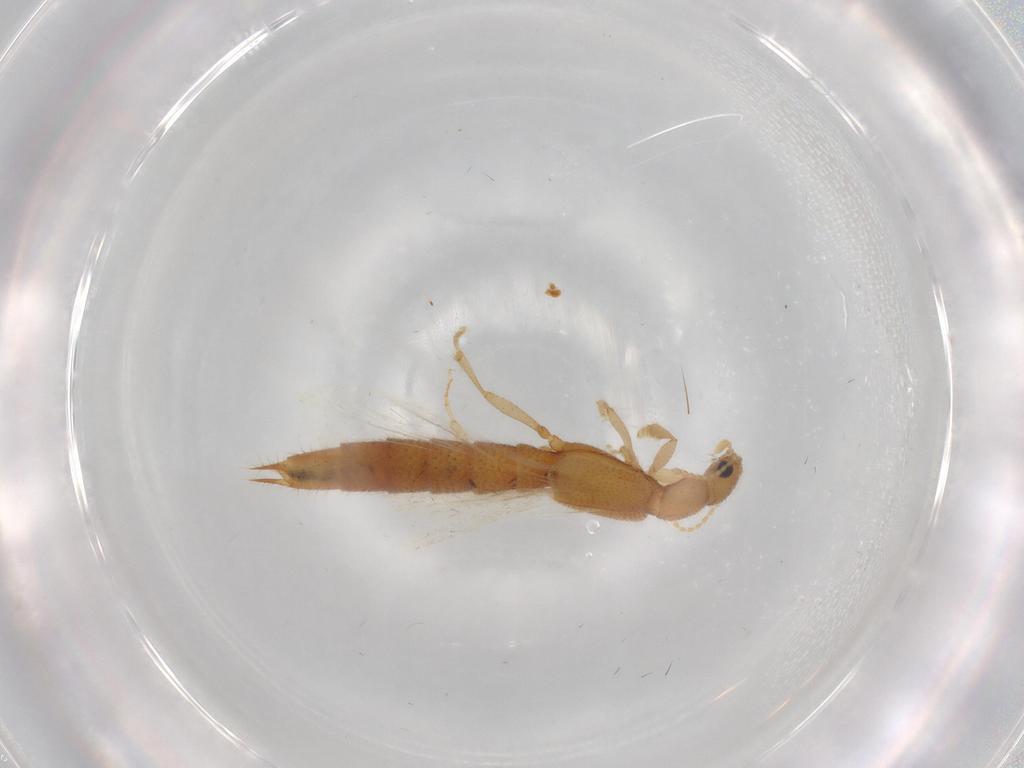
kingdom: Animalia
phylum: Arthropoda
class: Insecta
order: Coleoptera
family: Staphylinidae
